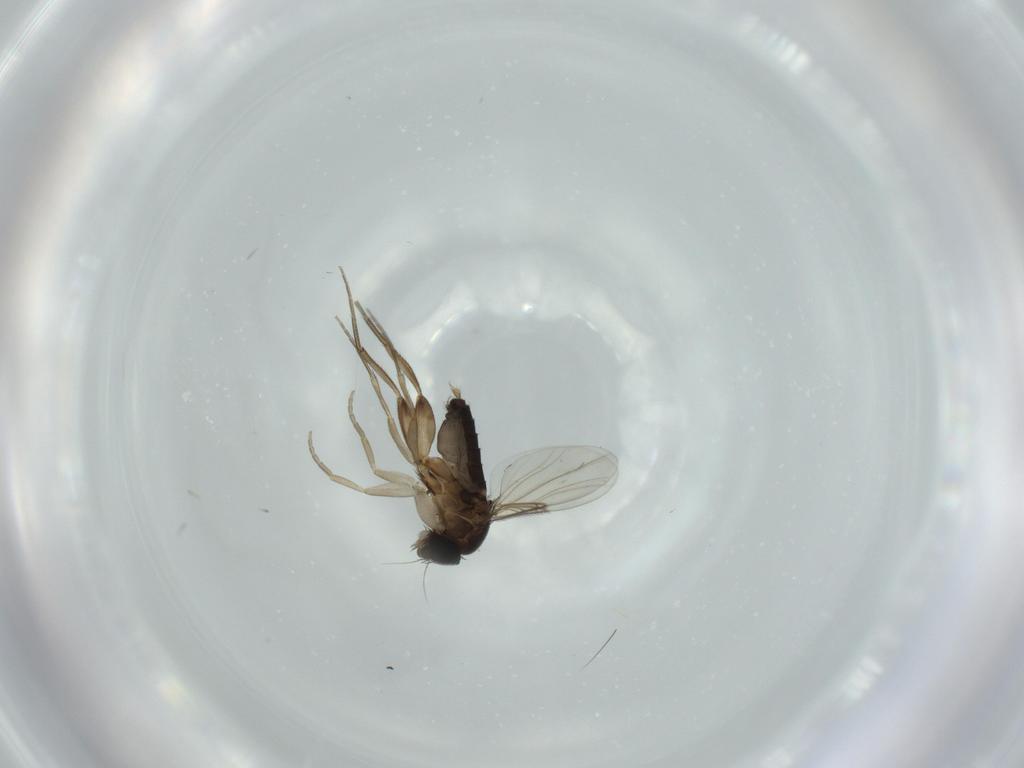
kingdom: Animalia
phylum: Arthropoda
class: Insecta
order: Diptera
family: Phoridae
